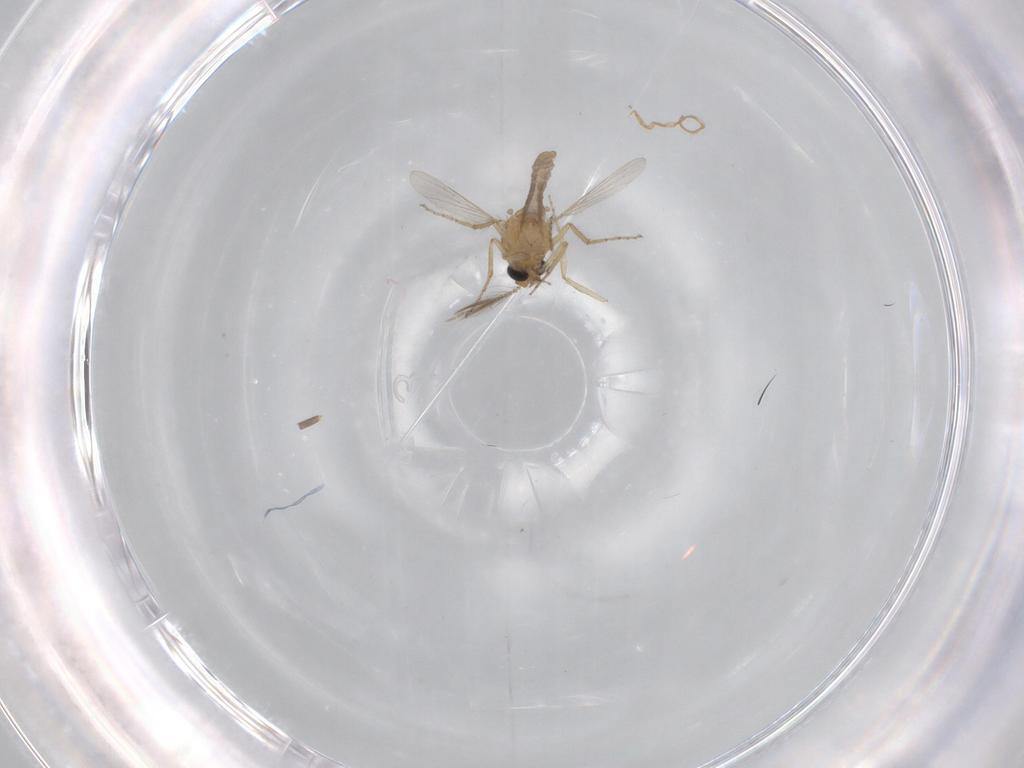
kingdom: Animalia
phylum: Arthropoda
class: Insecta
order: Diptera
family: Ceratopogonidae
